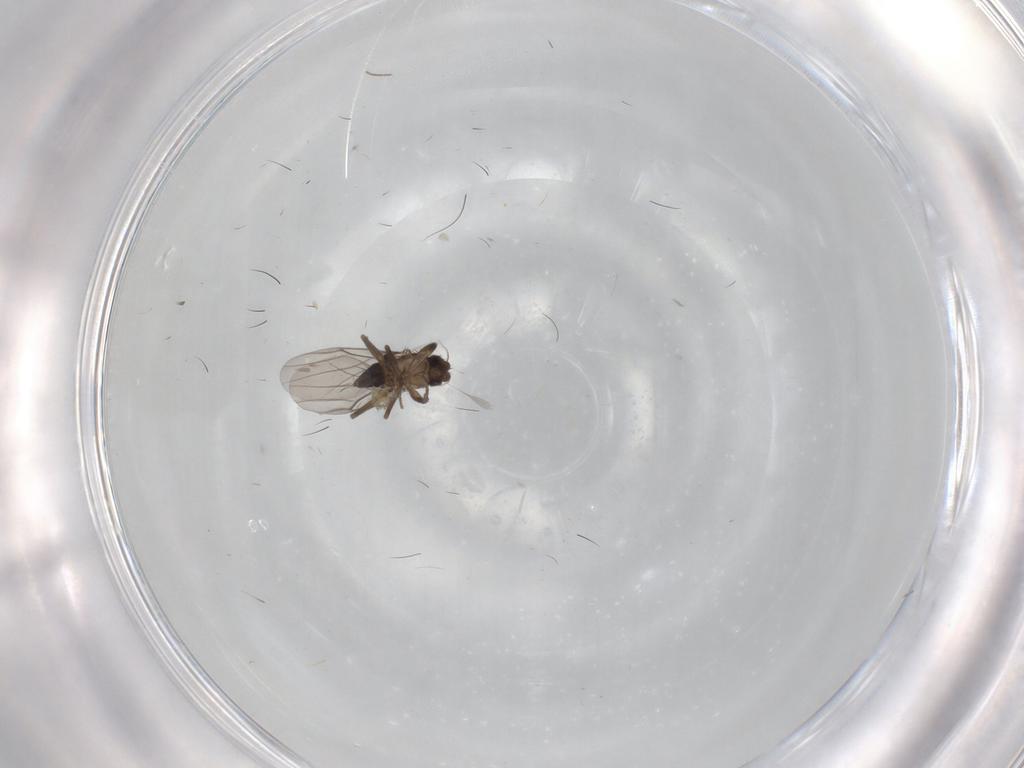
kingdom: Animalia
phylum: Arthropoda
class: Insecta
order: Diptera
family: Phoridae
